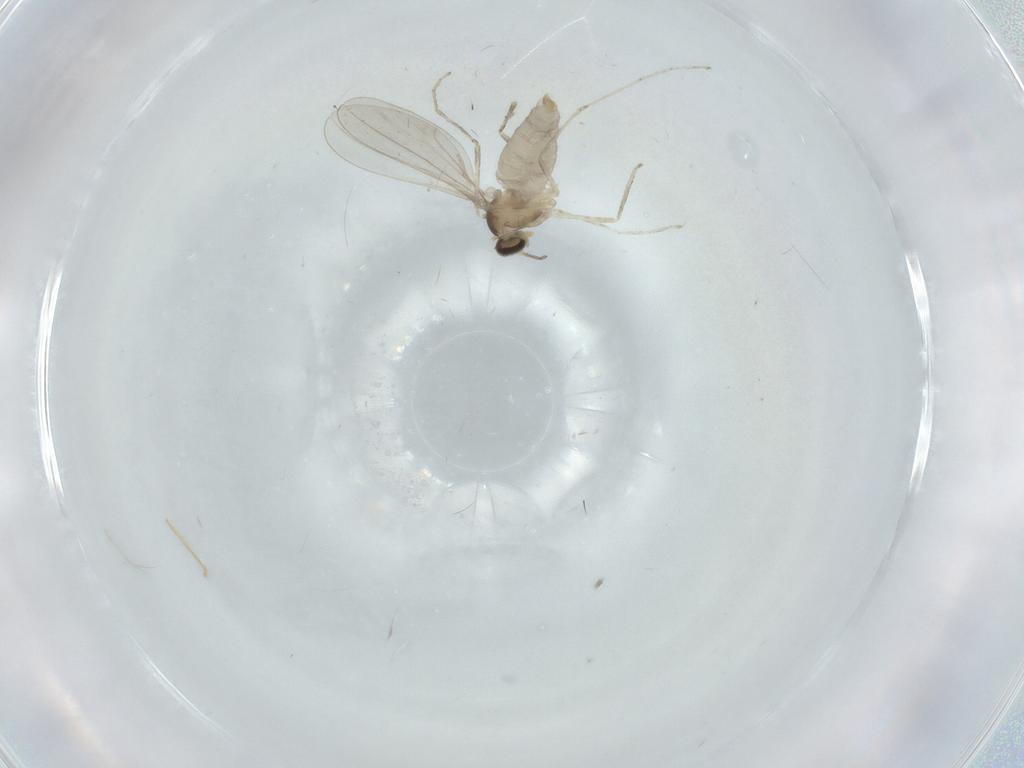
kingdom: Animalia
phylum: Arthropoda
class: Insecta
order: Diptera
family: Cecidomyiidae
